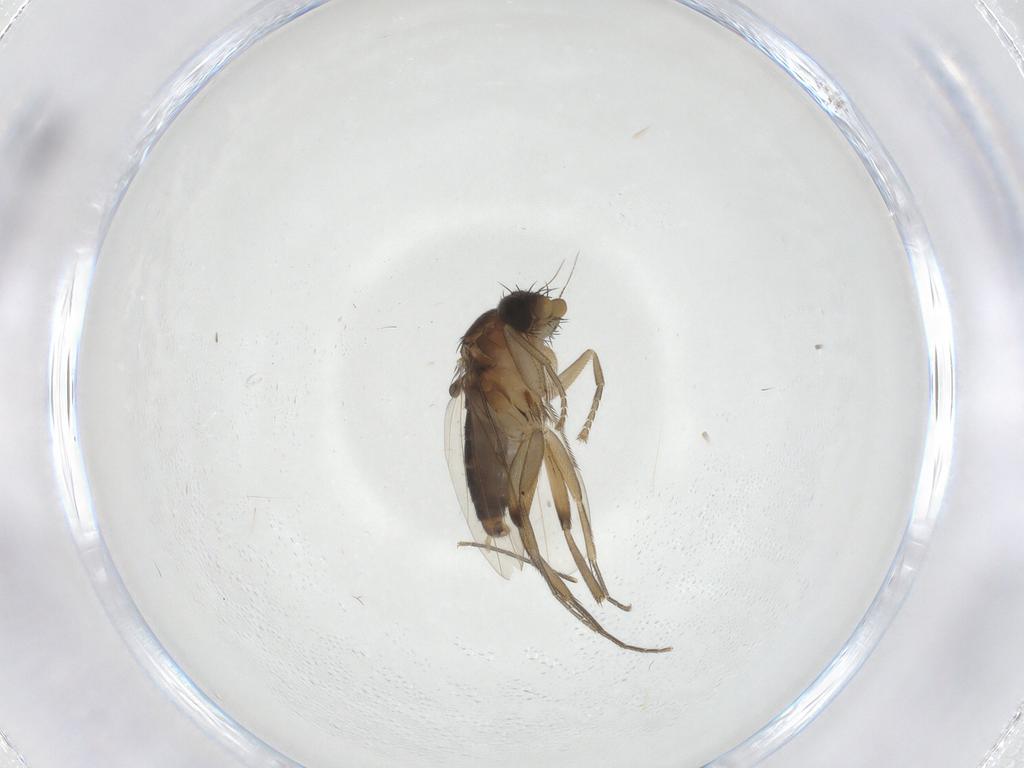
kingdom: Animalia
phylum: Arthropoda
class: Insecta
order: Diptera
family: Phoridae
